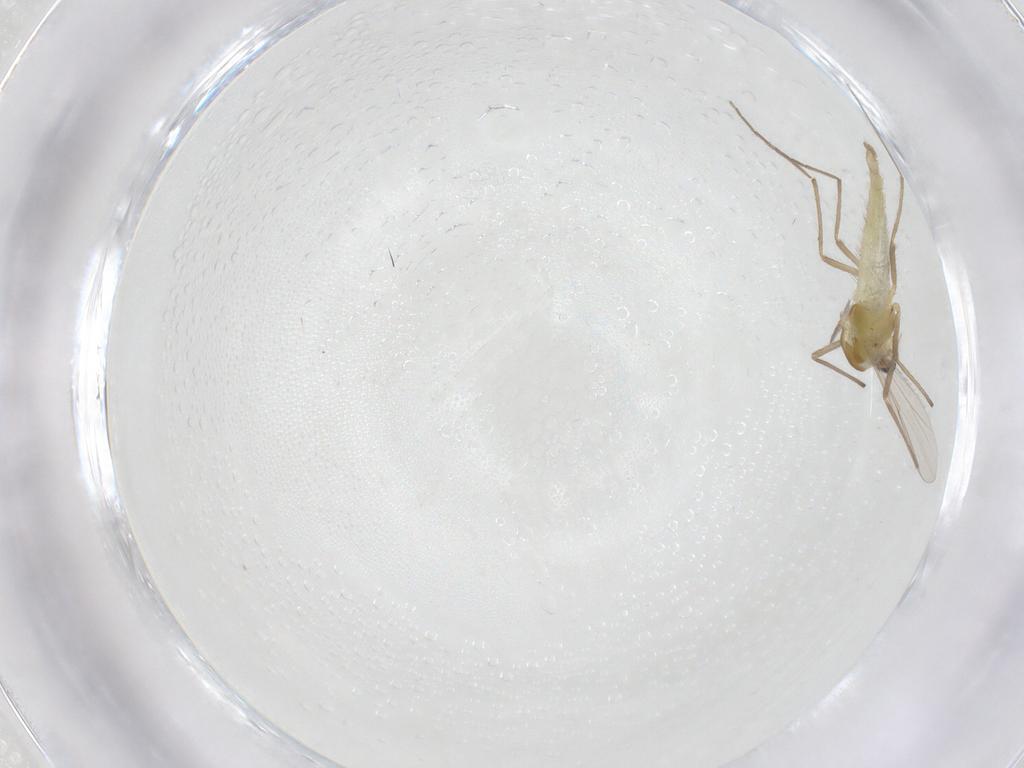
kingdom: Animalia
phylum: Arthropoda
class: Insecta
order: Diptera
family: Chironomidae
